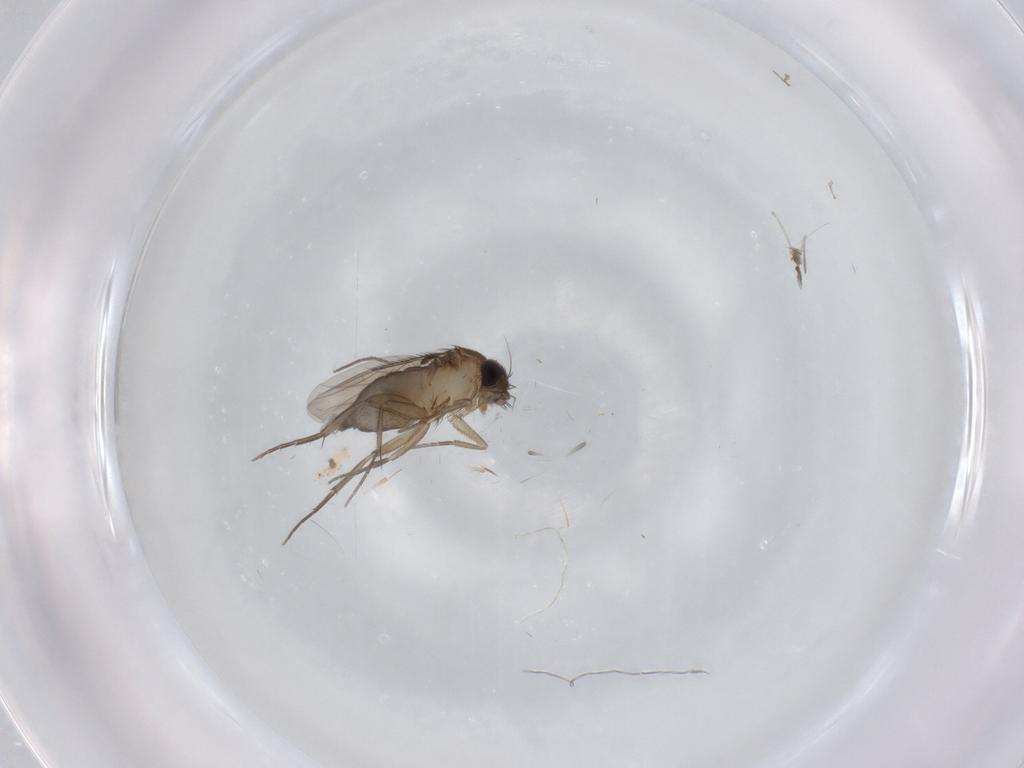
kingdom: Animalia
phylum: Arthropoda
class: Insecta
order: Diptera
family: Phoridae
